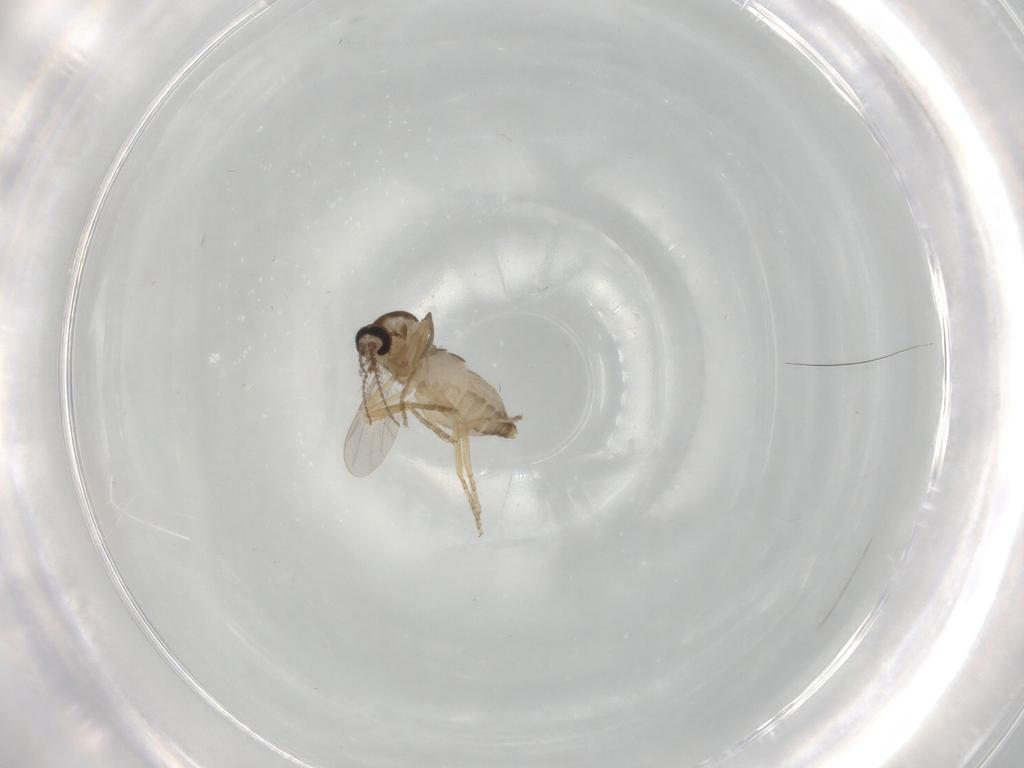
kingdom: Animalia
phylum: Arthropoda
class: Insecta
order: Diptera
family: Ceratopogonidae
